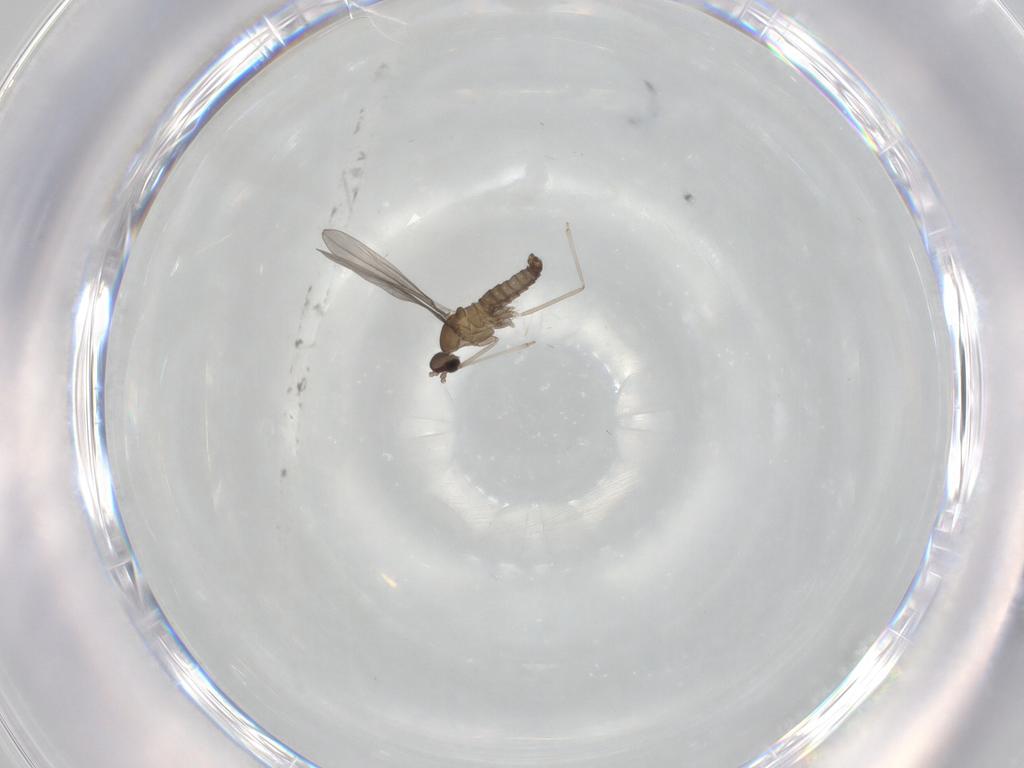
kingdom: Animalia
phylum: Arthropoda
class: Insecta
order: Diptera
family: Cecidomyiidae
